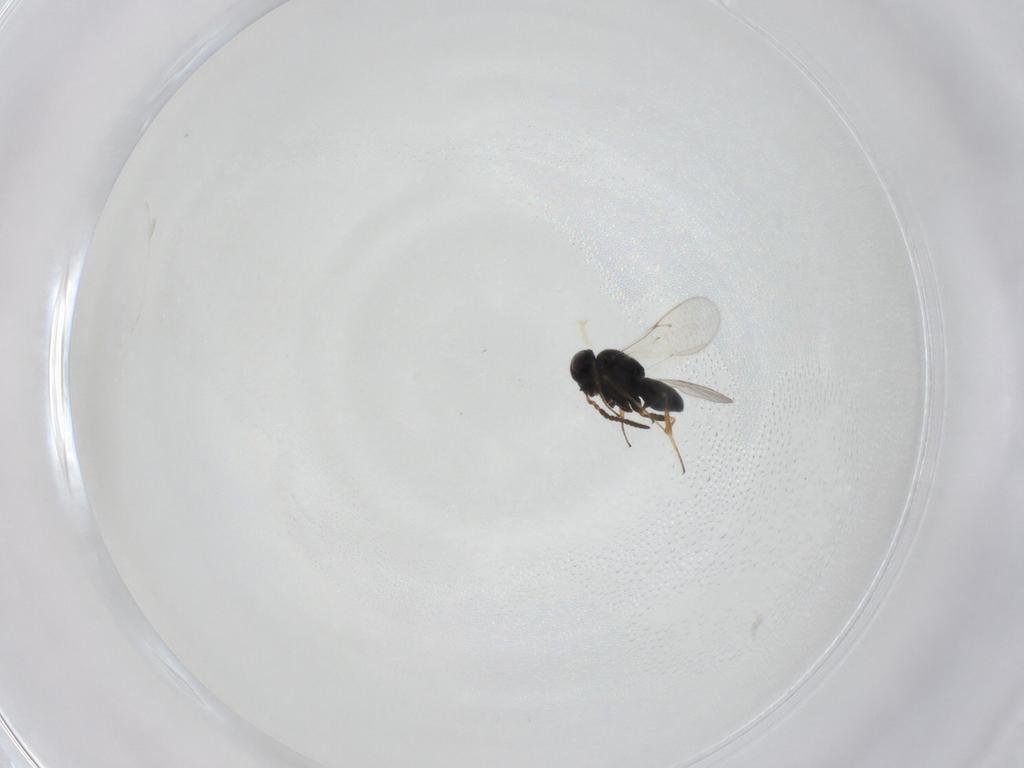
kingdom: Animalia
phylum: Arthropoda
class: Insecta
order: Hymenoptera
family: Scelionidae
